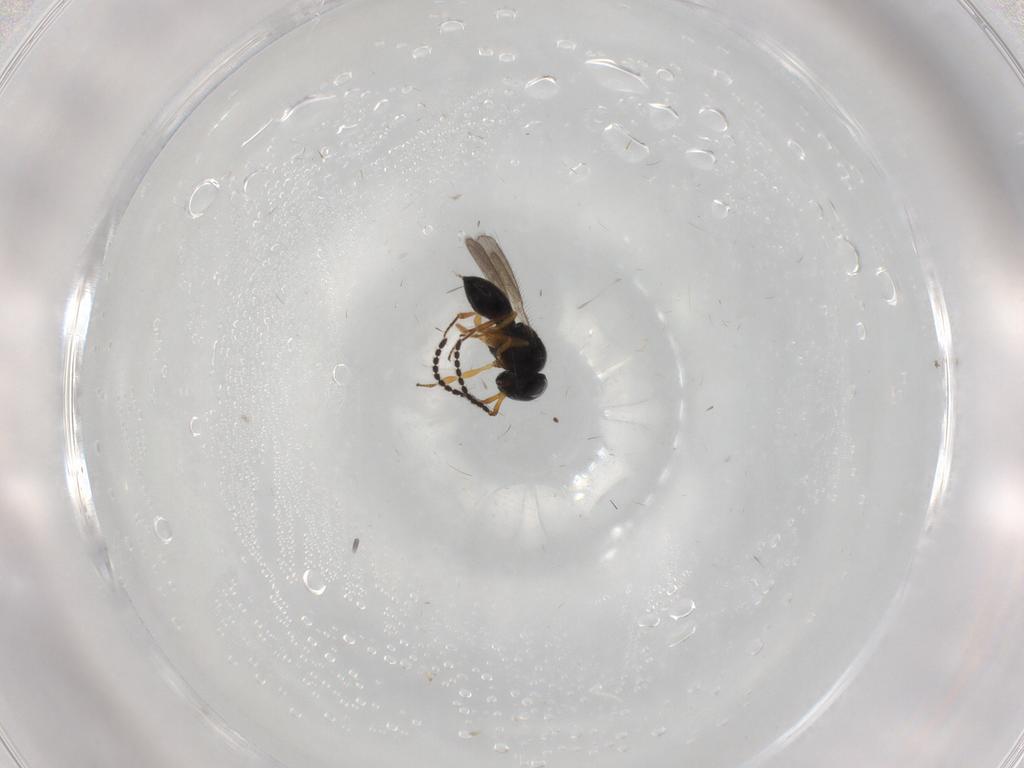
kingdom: Animalia
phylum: Arthropoda
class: Insecta
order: Hymenoptera
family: Scelionidae
